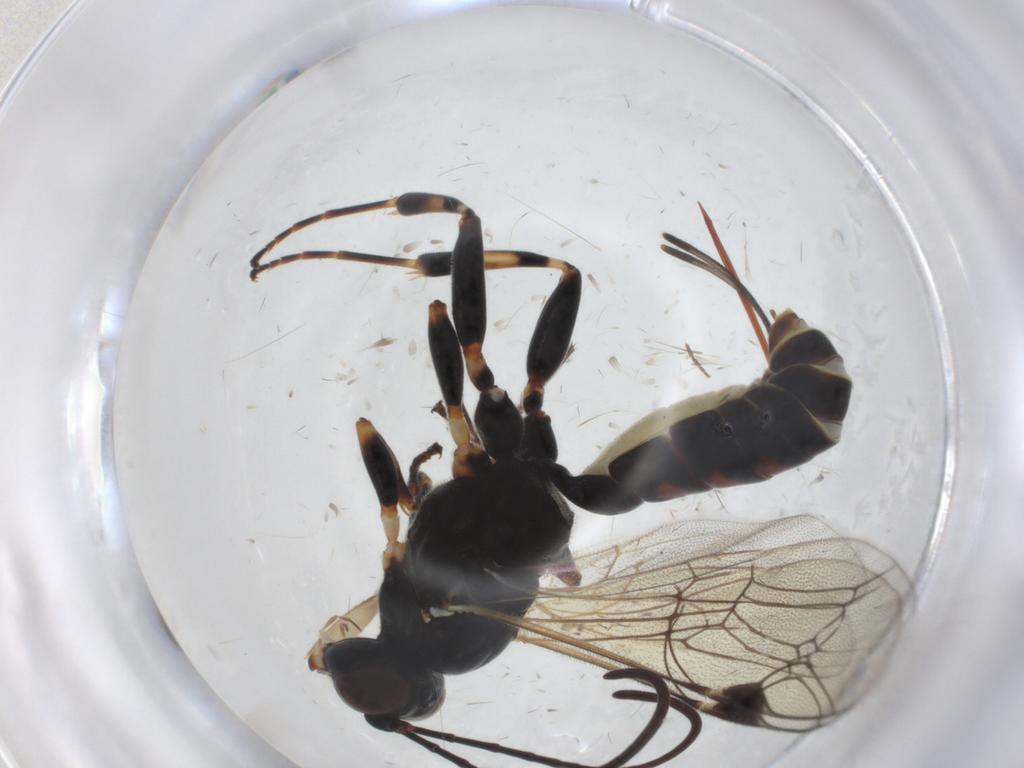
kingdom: Animalia
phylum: Arthropoda
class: Insecta
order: Hymenoptera
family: Ichneumonidae
